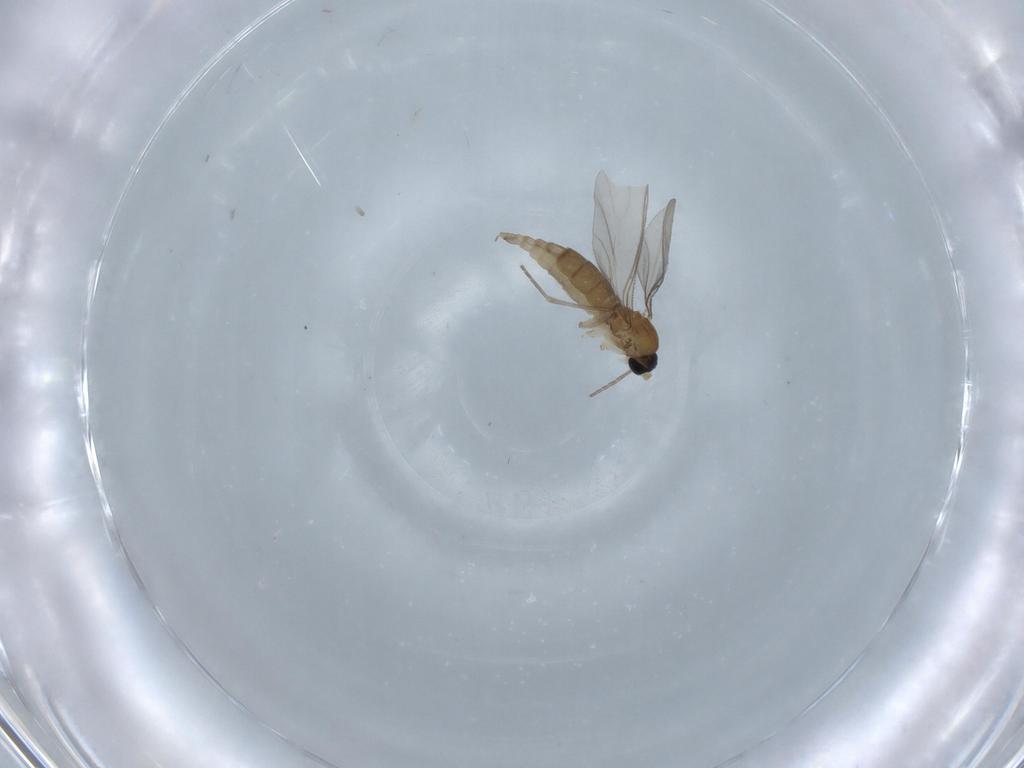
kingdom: Animalia
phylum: Arthropoda
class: Insecta
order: Diptera
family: Sciaridae
